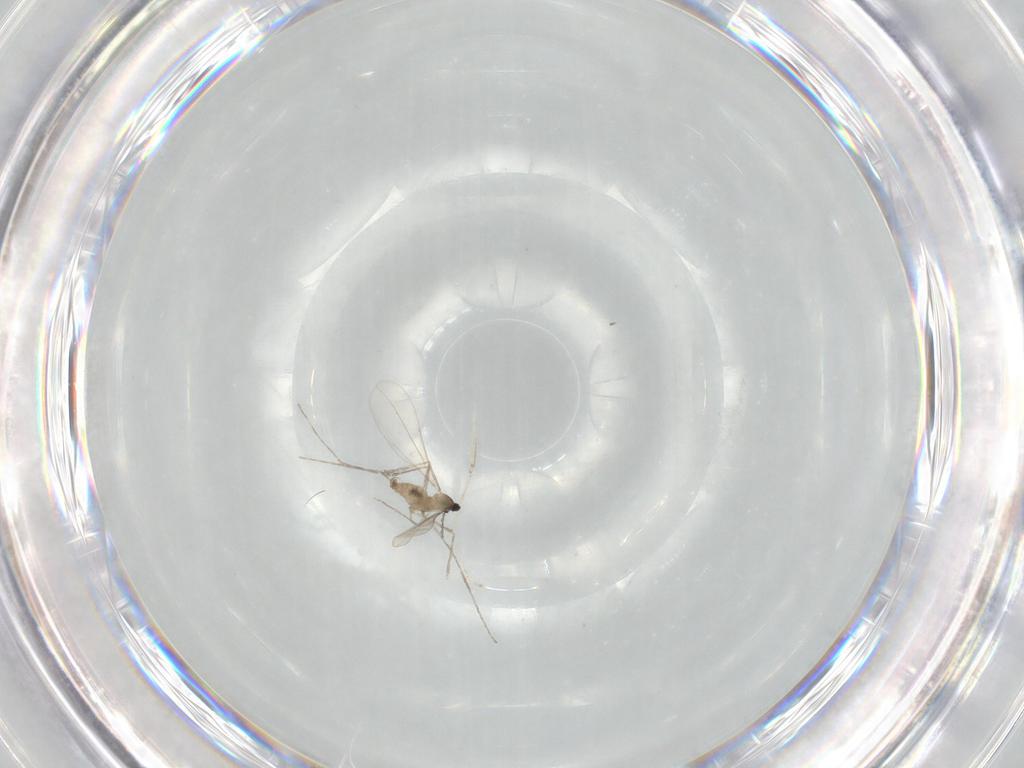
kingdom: Animalia
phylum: Arthropoda
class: Insecta
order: Diptera
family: Cecidomyiidae
